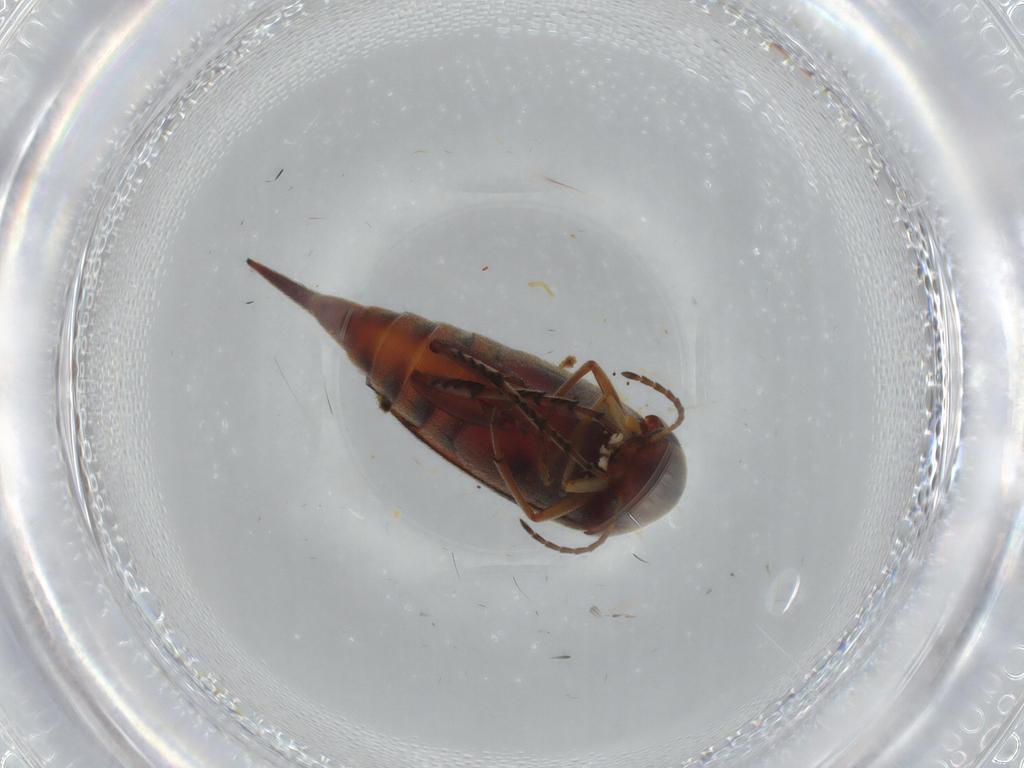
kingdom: Animalia
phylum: Arthropoda
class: Insecta
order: Coleoptera
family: Mordellidae
